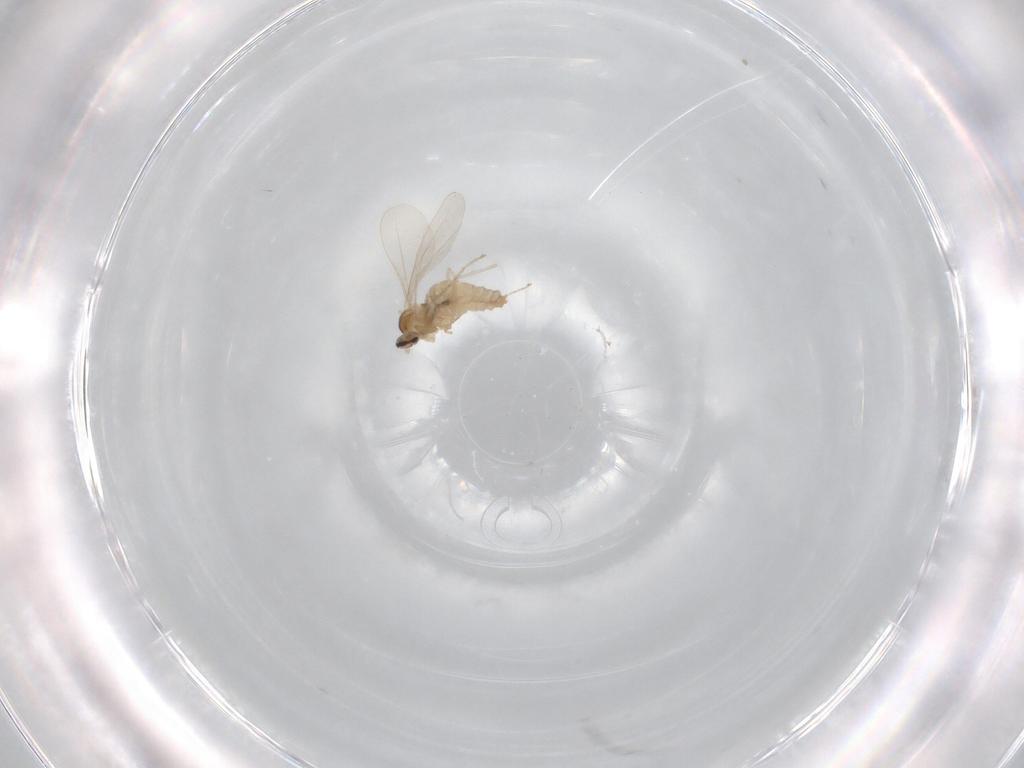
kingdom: Animalia
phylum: Arthropoda
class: Insecta
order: Diptera
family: Cecidomyiidae
